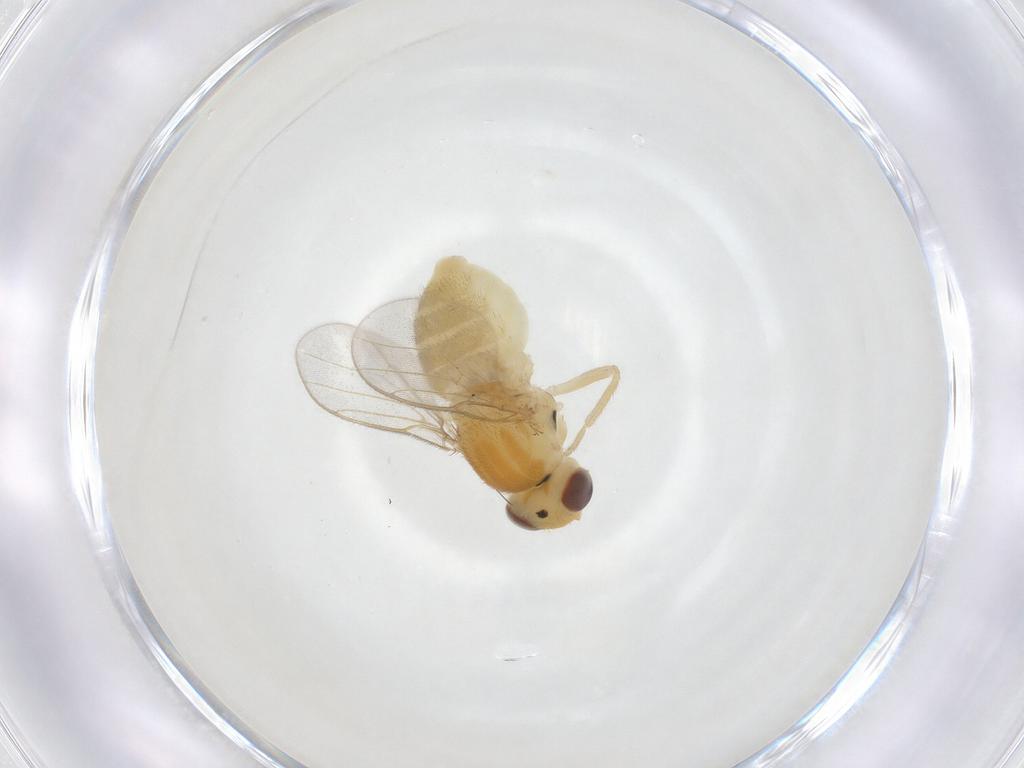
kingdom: Animalia
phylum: Arthropoda
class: Insecta
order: Diptera
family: Chloropidae
